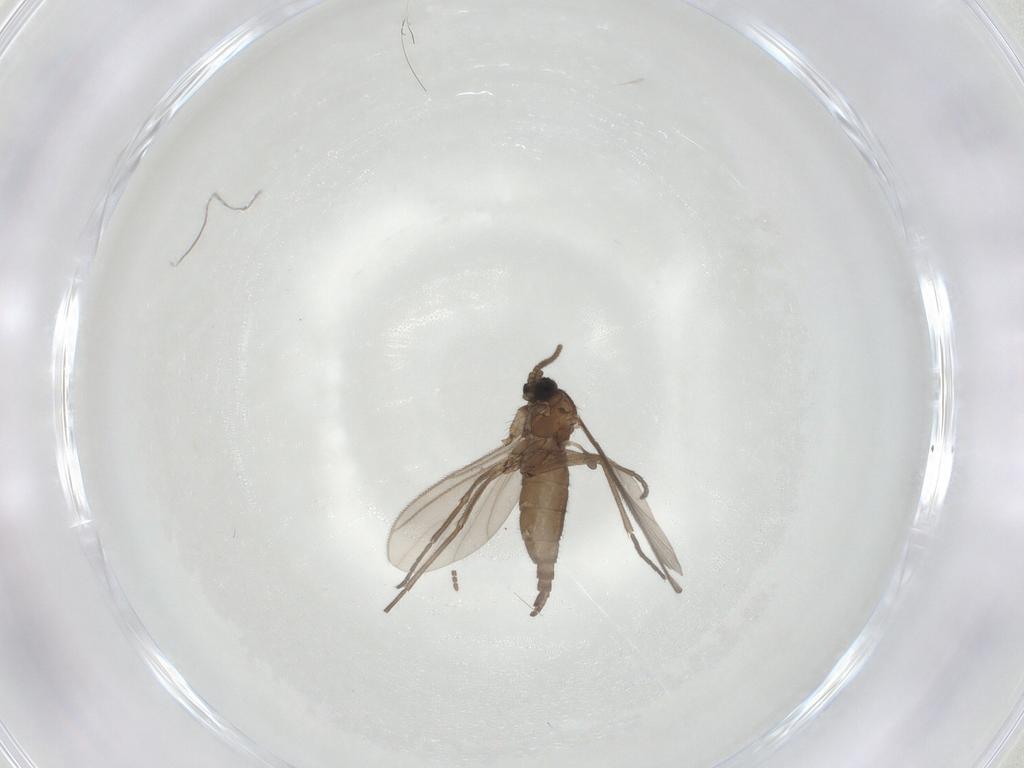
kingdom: Animalia
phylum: Arthropoda
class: Insecta
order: Diptera
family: Sciaridae
